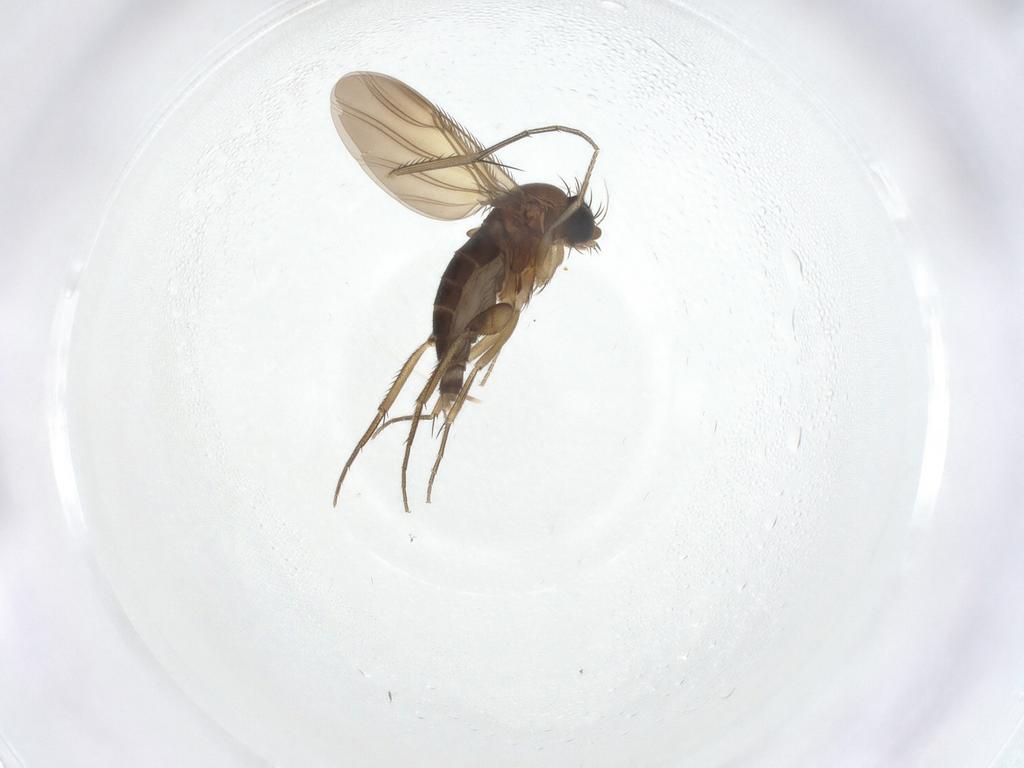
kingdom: Animalia
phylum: Arthropoda
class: Insecta
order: Diptera
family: Phoridae
